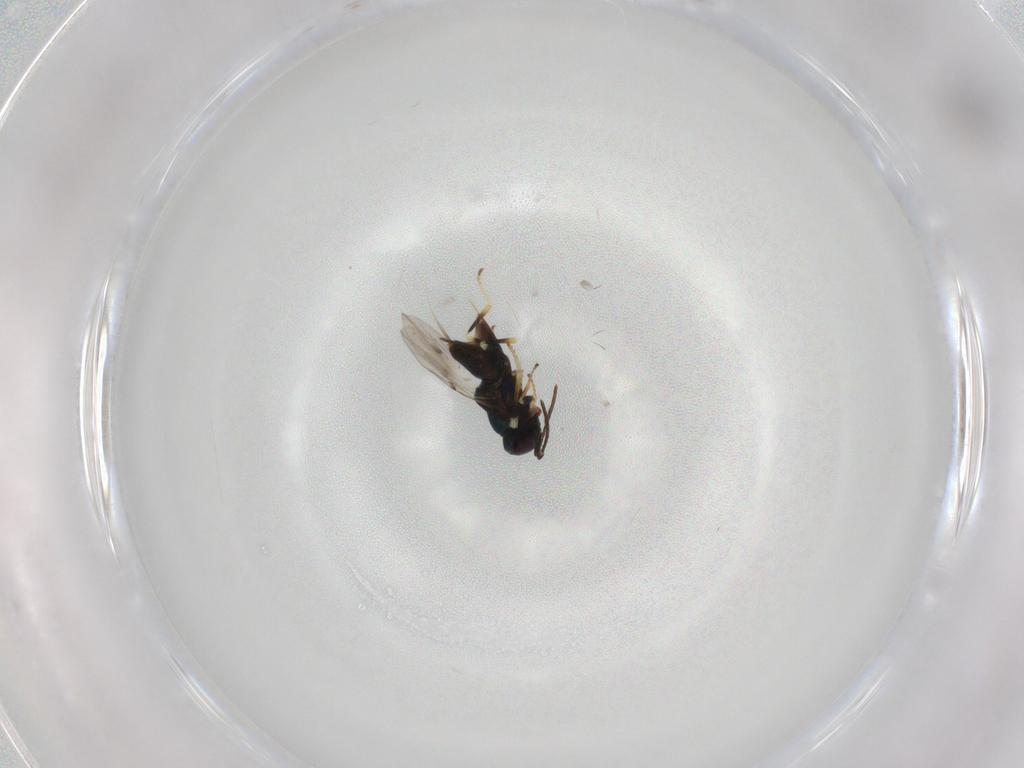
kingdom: Animalia
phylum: Arthropoda
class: Insecta
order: Hymenoptera
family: Encyrtidae
